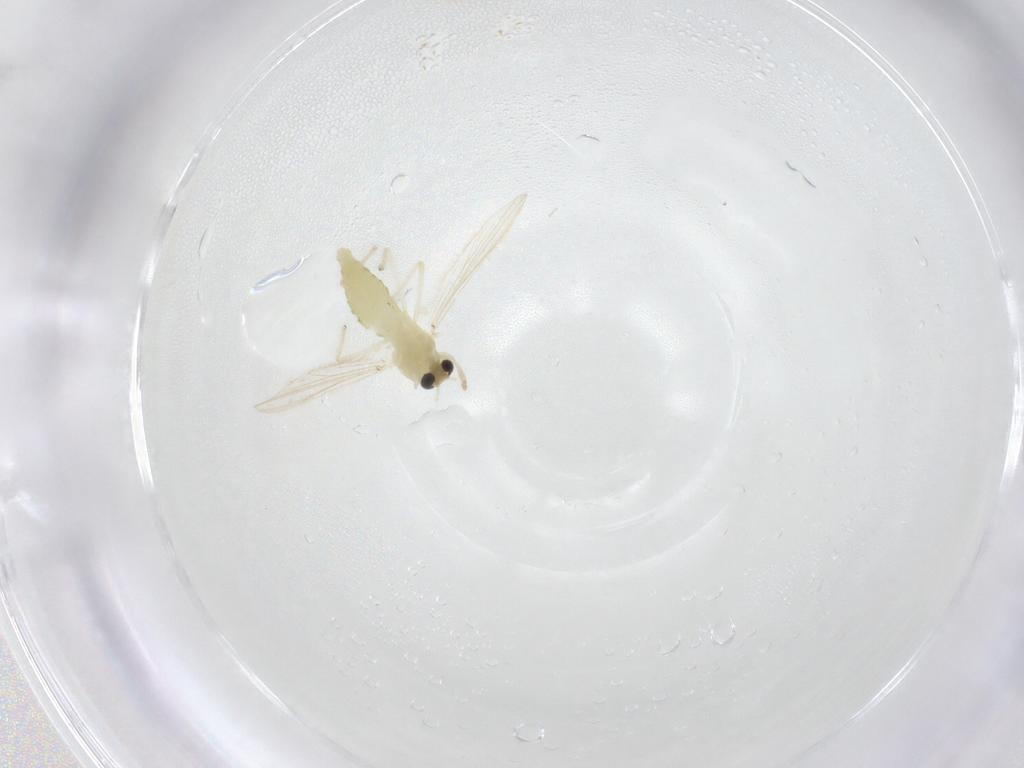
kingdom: Animalia
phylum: Arthropoda
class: Insecta
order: Diptera
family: Chironomidae
